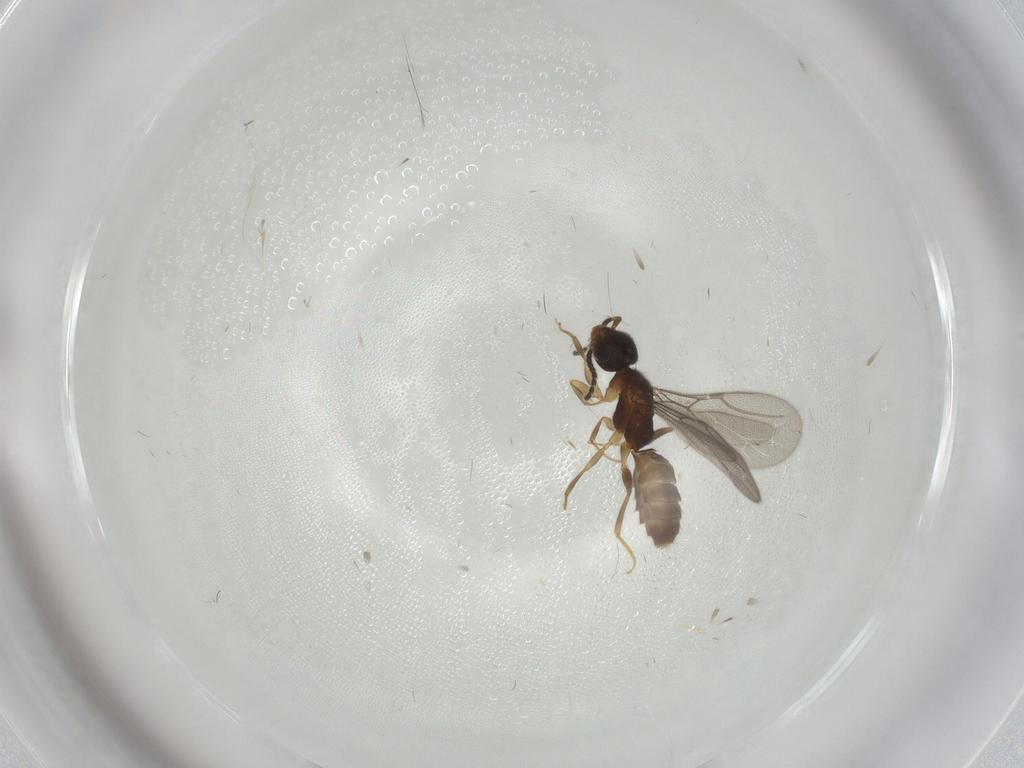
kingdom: Animalia
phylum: Arthropoda
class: Insecta
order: Hymenoptera
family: Bethylidae
